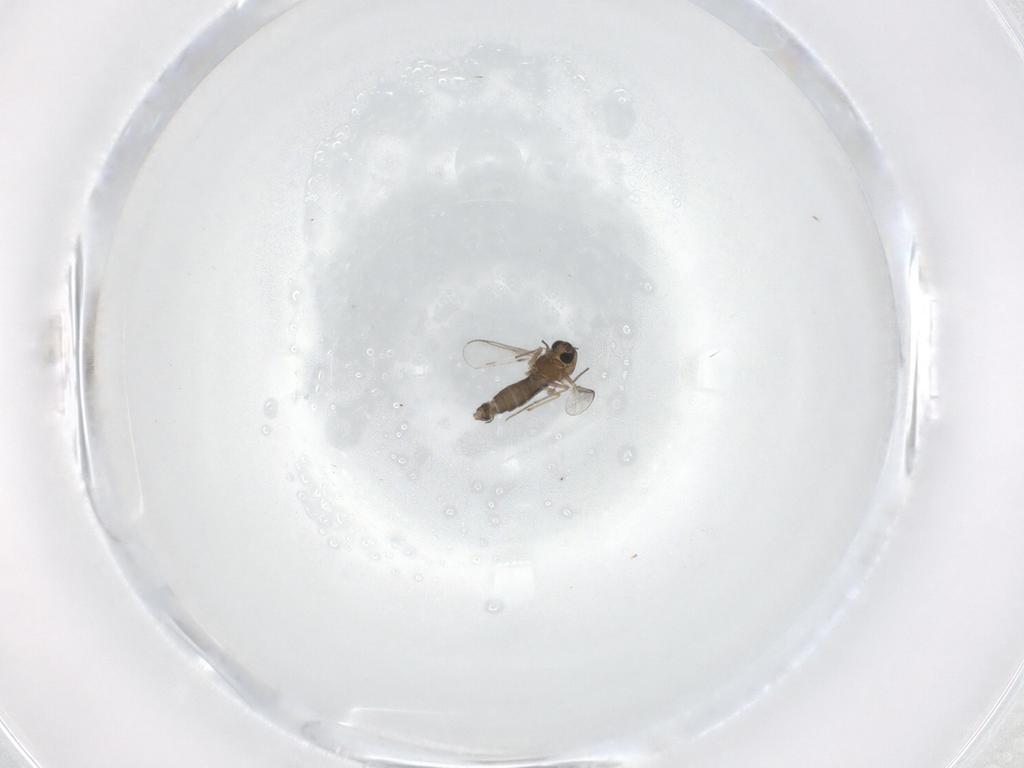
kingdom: Animalia
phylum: Arthropoda
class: Insecta
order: Diptera
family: Chironomidae
